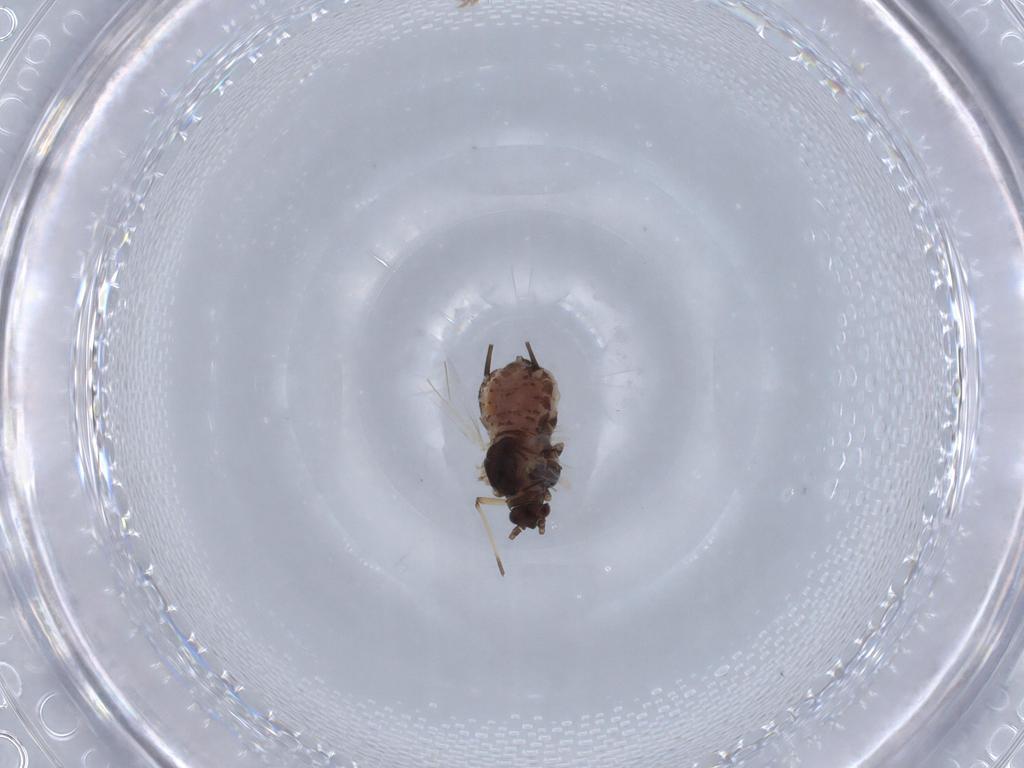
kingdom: Animalia
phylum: Arthropoda
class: Insecta
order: Hemiptera
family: Aphididae
